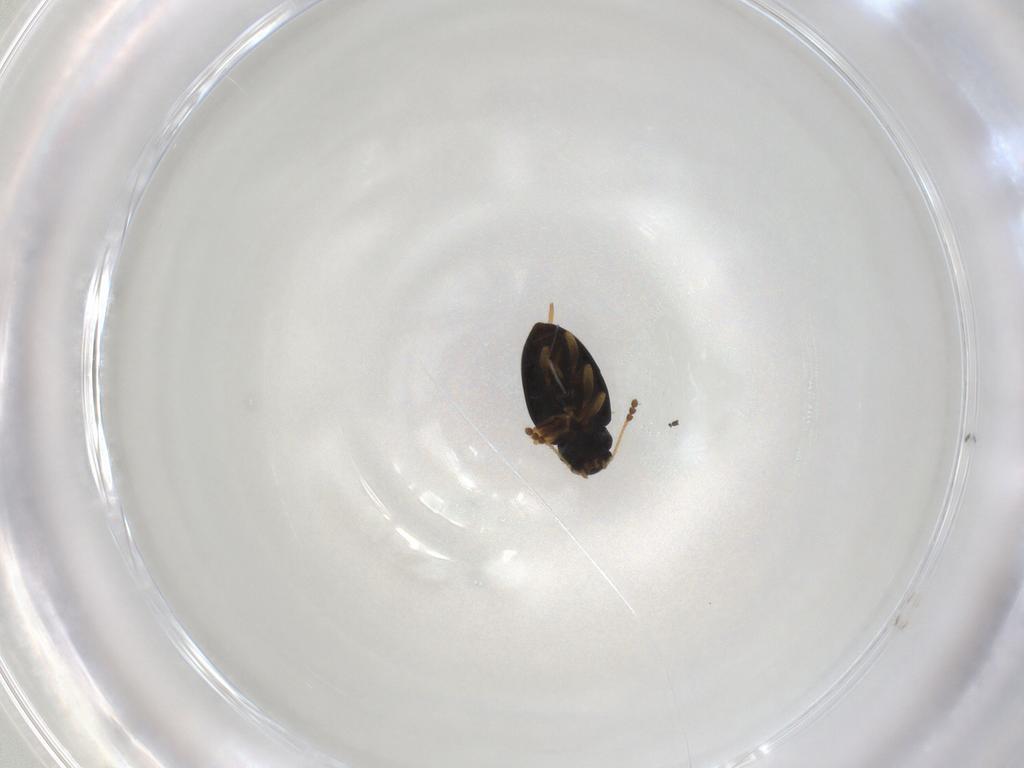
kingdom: Animalia
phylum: Arthropoda
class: Insecta
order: Coleoptera
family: Erotylidae
